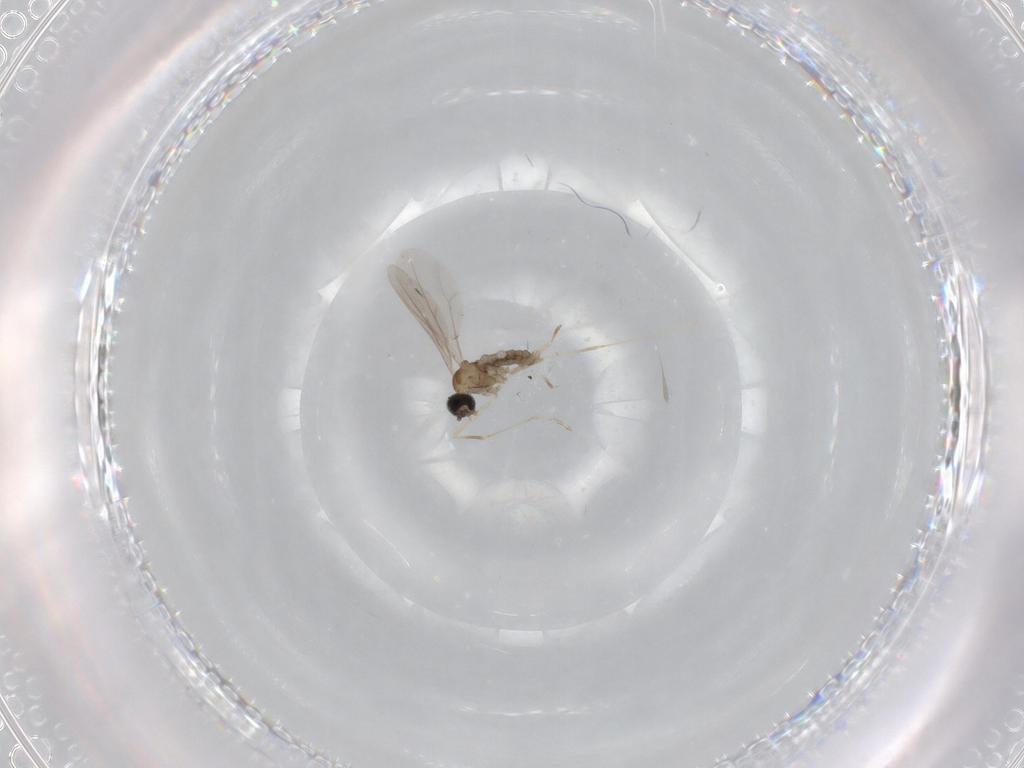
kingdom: Animalia
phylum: Arthropoda
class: Insecta
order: Diptera
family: Cecidomyiidae
